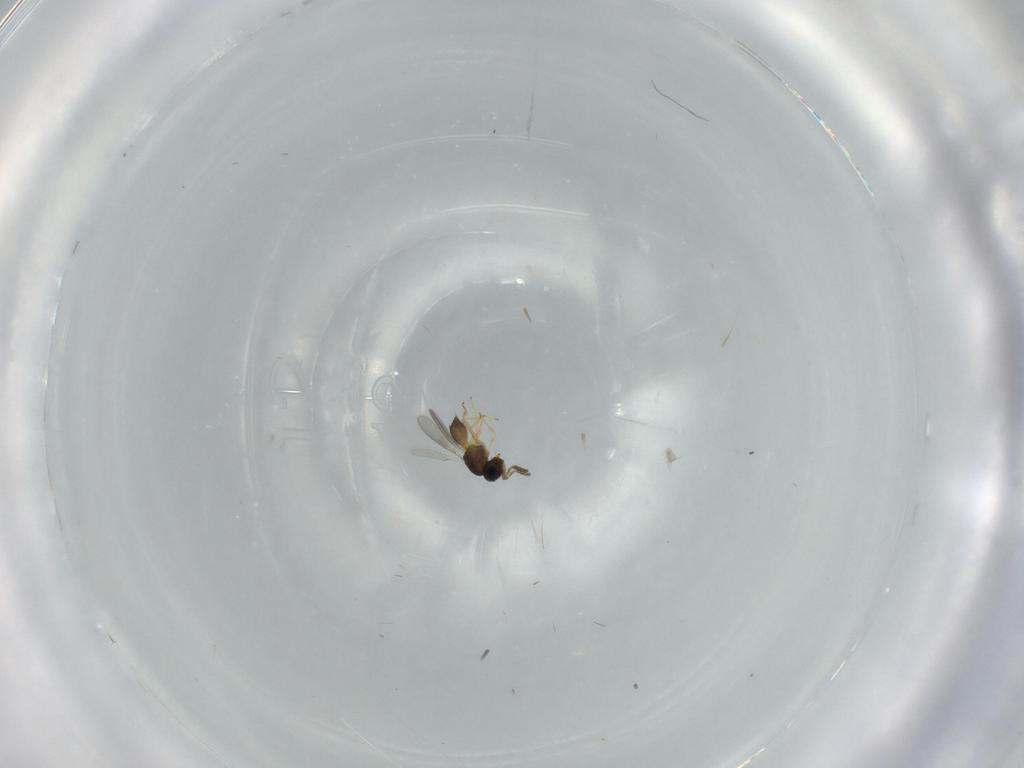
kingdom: Animalia
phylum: Arthropoda
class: Insecta
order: Hymenoptera
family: Scelionidae
